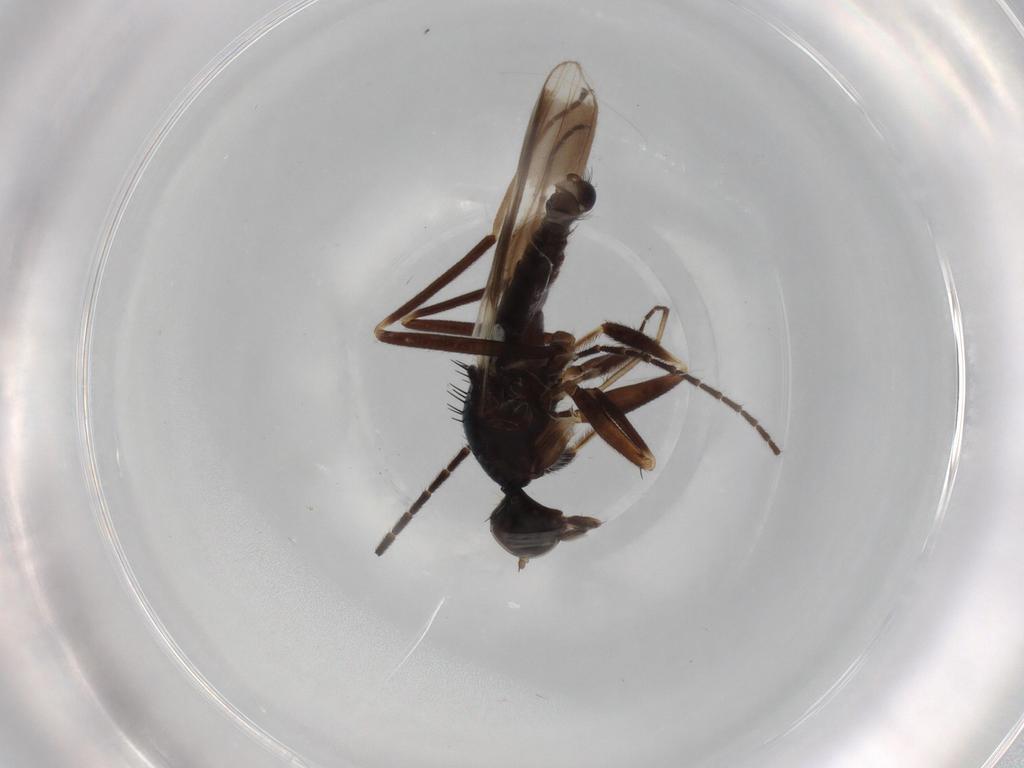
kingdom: Animalia
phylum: Arthropoda
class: Insecta
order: Diptera
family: Hybotidae
